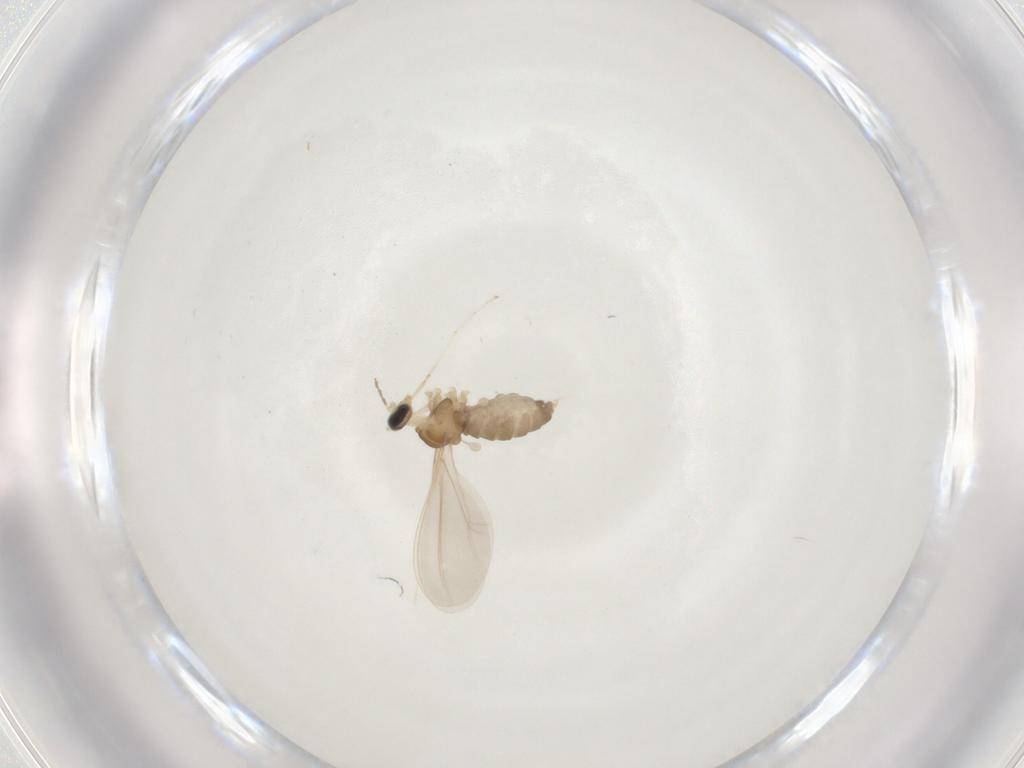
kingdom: Animalia
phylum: Arthropoda
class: Insecta
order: Diptera
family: Cecidomyiidae
